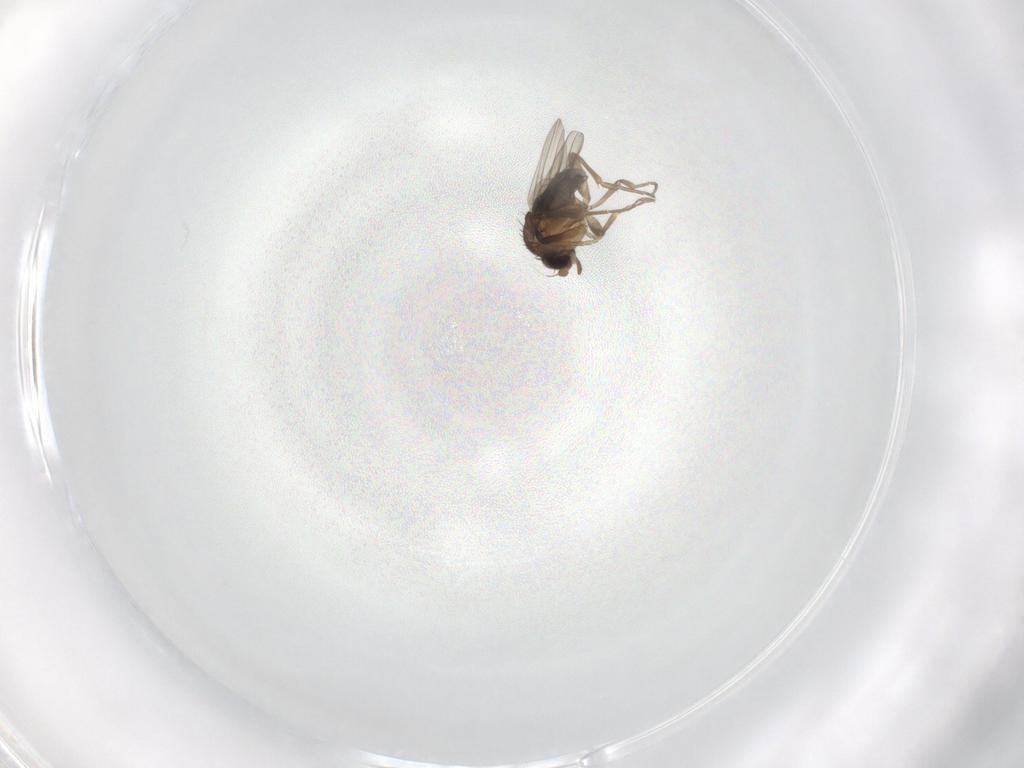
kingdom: Animalia
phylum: Arthropoda
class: Insecta
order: Diptera
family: Phoridae
